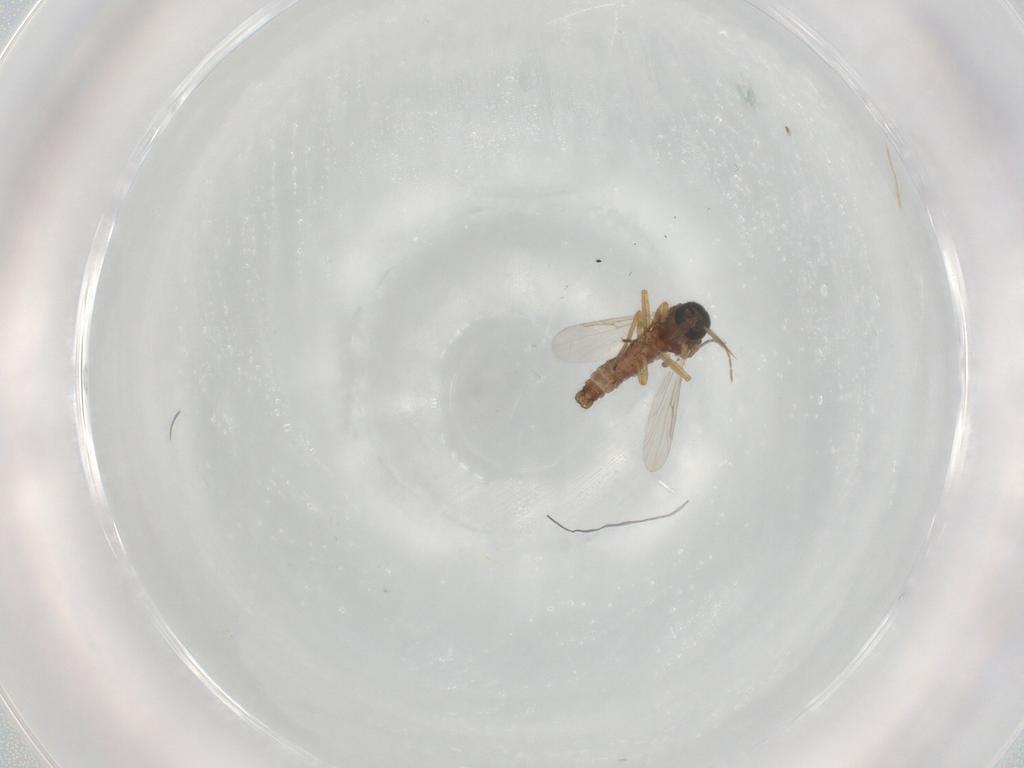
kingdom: Animalia
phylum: Arthropoda
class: Insecta
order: Diptera
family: Ceratopogonidae
